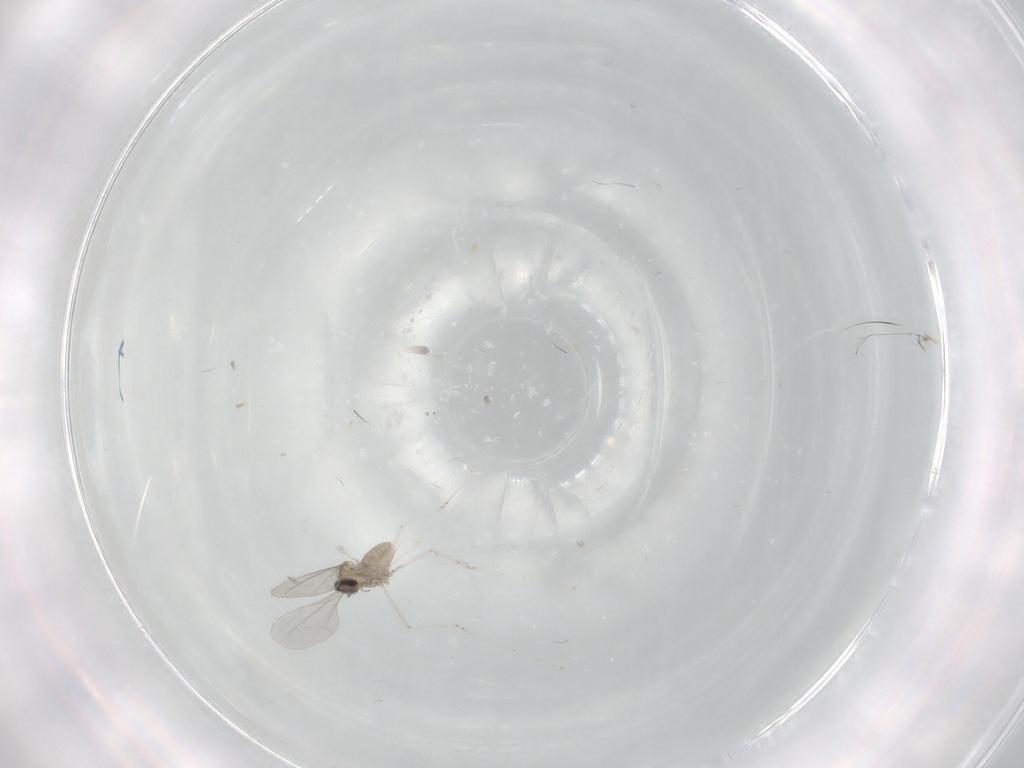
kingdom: Animalia
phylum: Arthropoda
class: Insecta
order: Diptera
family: Cecidomyiidae
